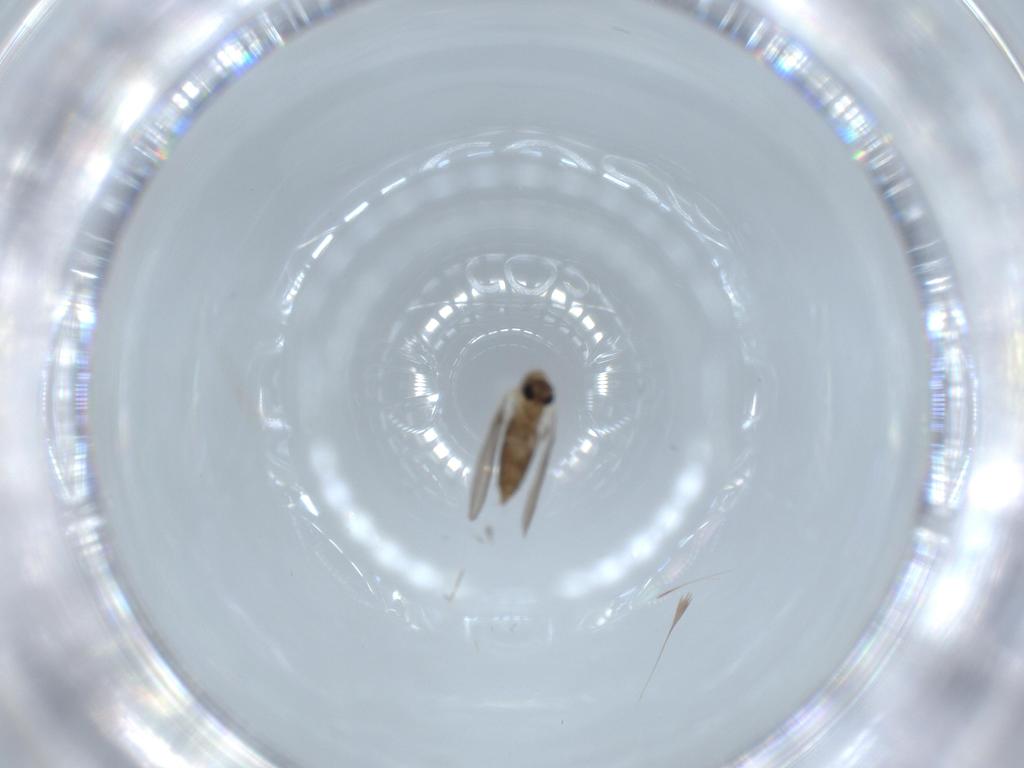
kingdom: Animalia
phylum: Arthropoda
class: Insecta
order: Diptera
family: Psychodidae
